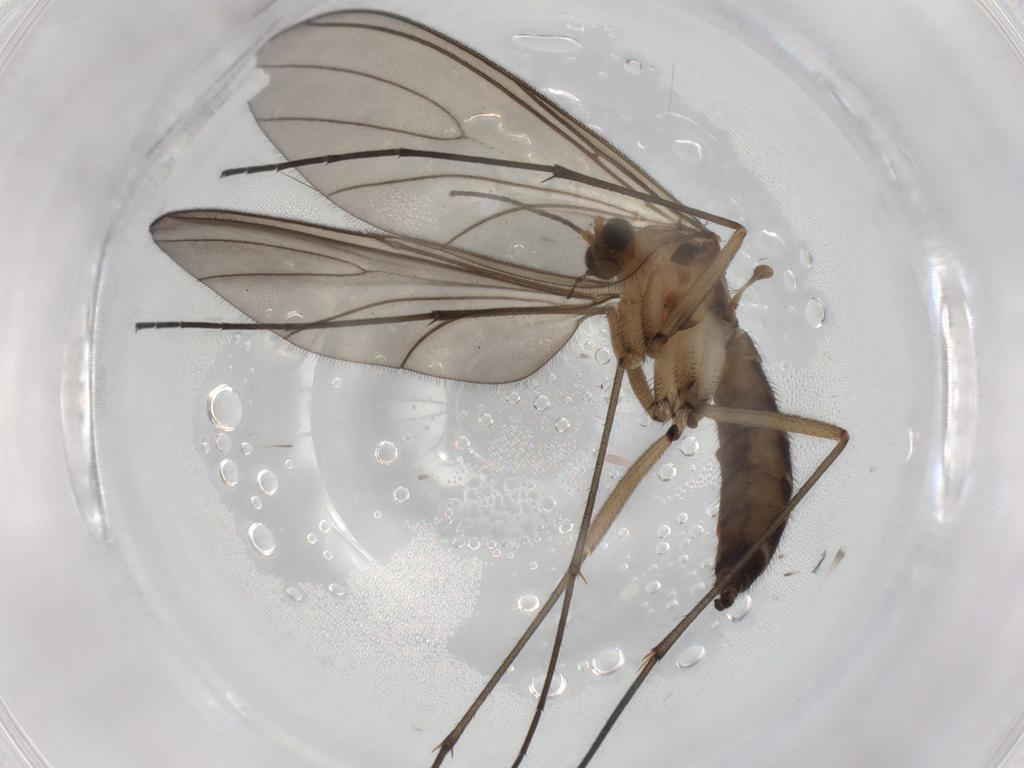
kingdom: Animalia
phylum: Arthropoda
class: Insecta
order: Diptera
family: Sciaridae
